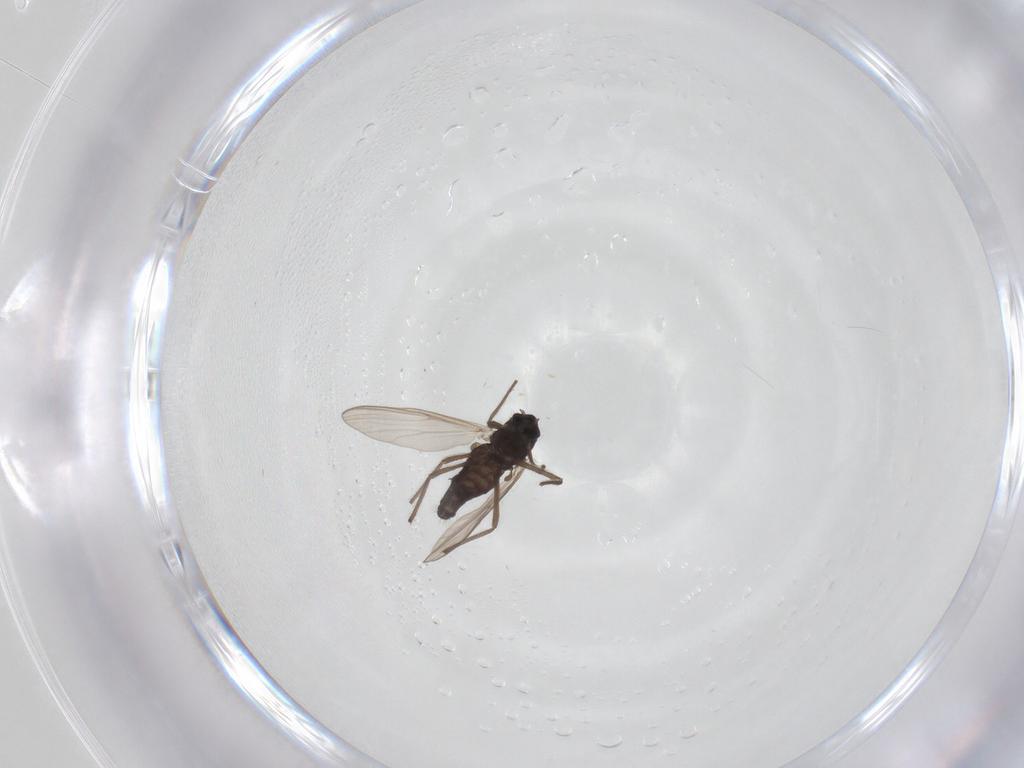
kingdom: Animalia
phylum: Arthropoda
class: Insecta
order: Diptera
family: Chironomidae
